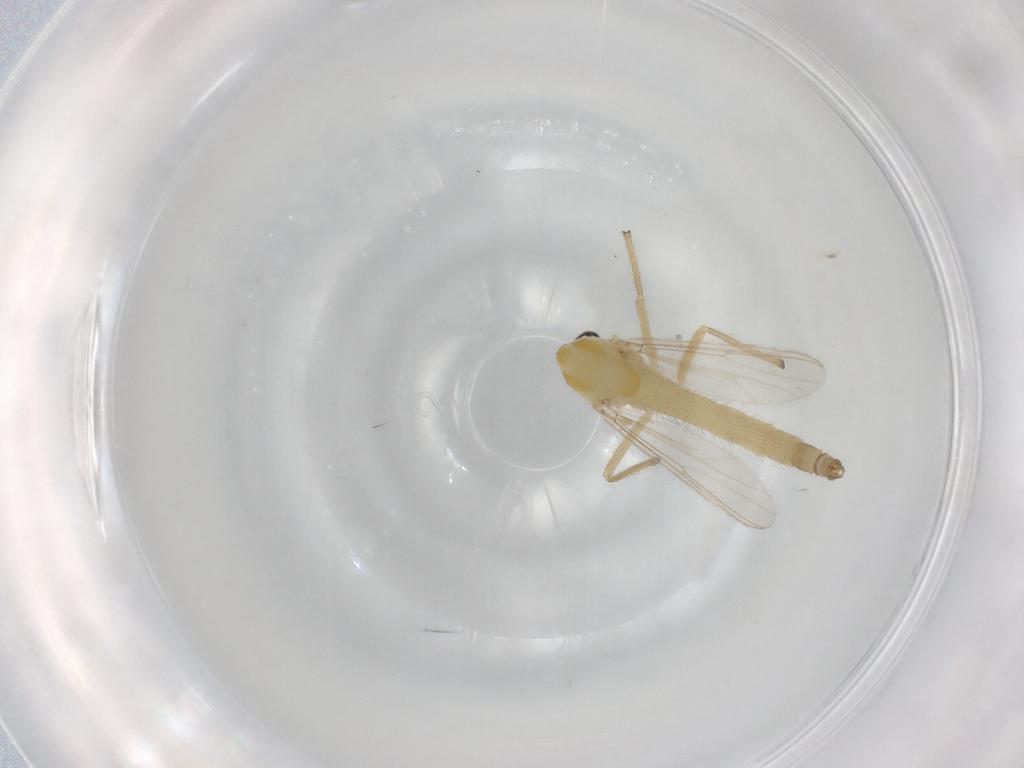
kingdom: Animalia
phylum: Arthropoda
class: Insecta
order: Diptera
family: Chironomidae
